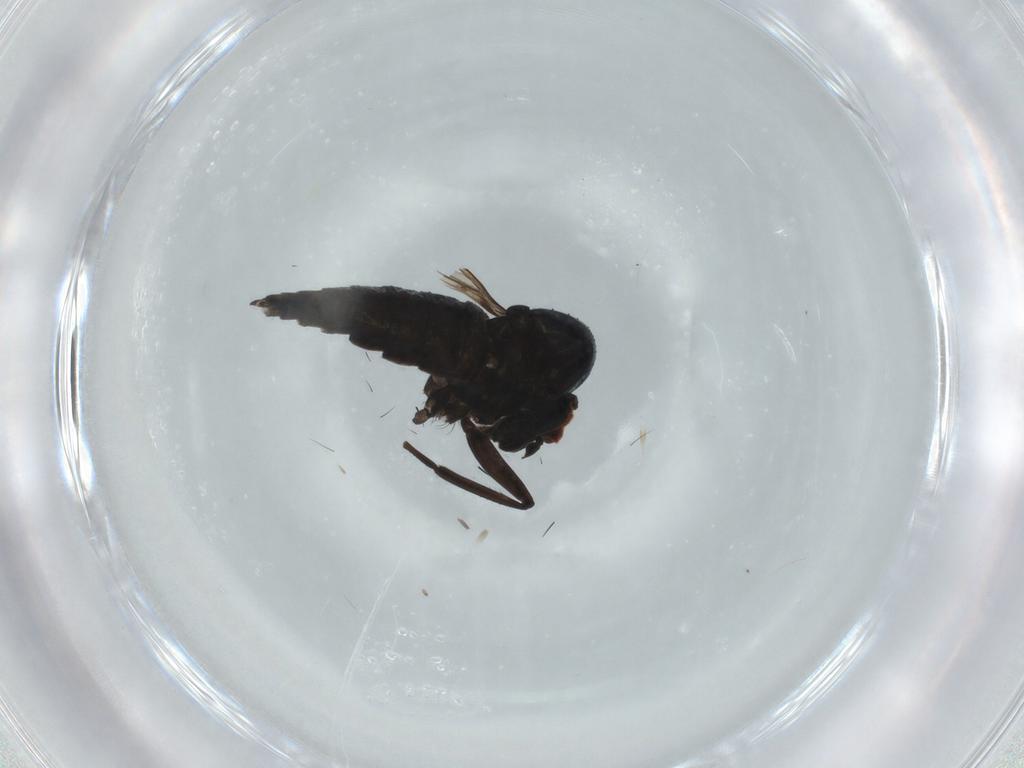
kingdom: Animalia
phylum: Arthropoda
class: Insecta
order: Diptera
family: Hybotidae
